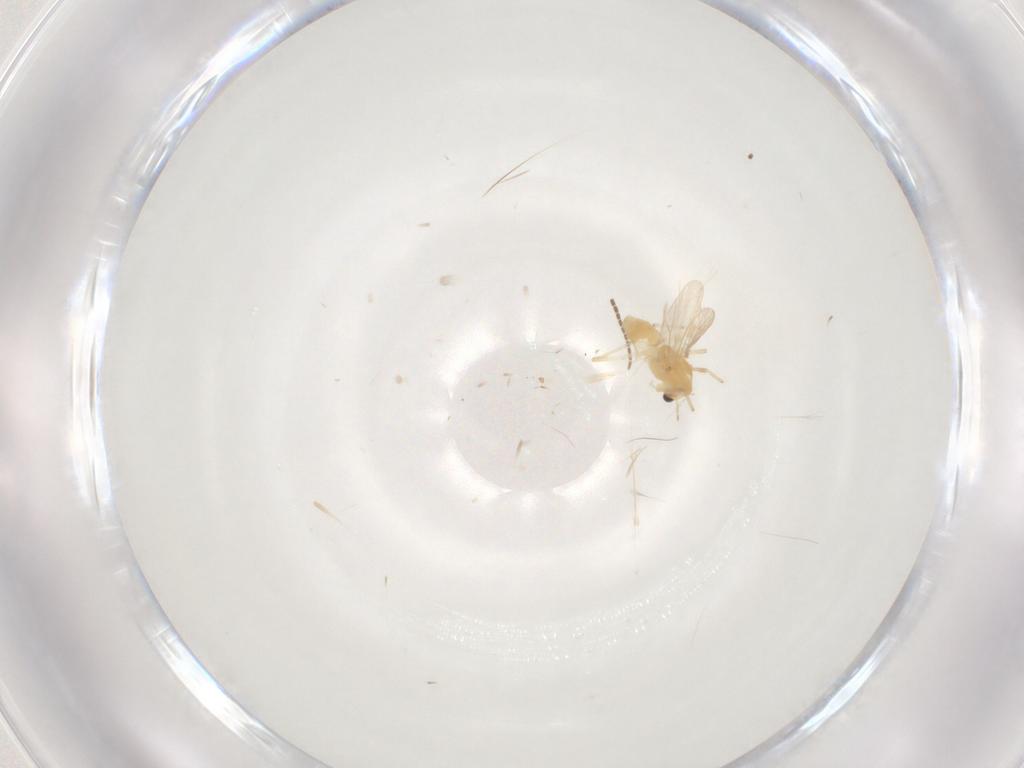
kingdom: Animalia
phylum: Arthropoda
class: Insecta
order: Diptera
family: Chironomidae
